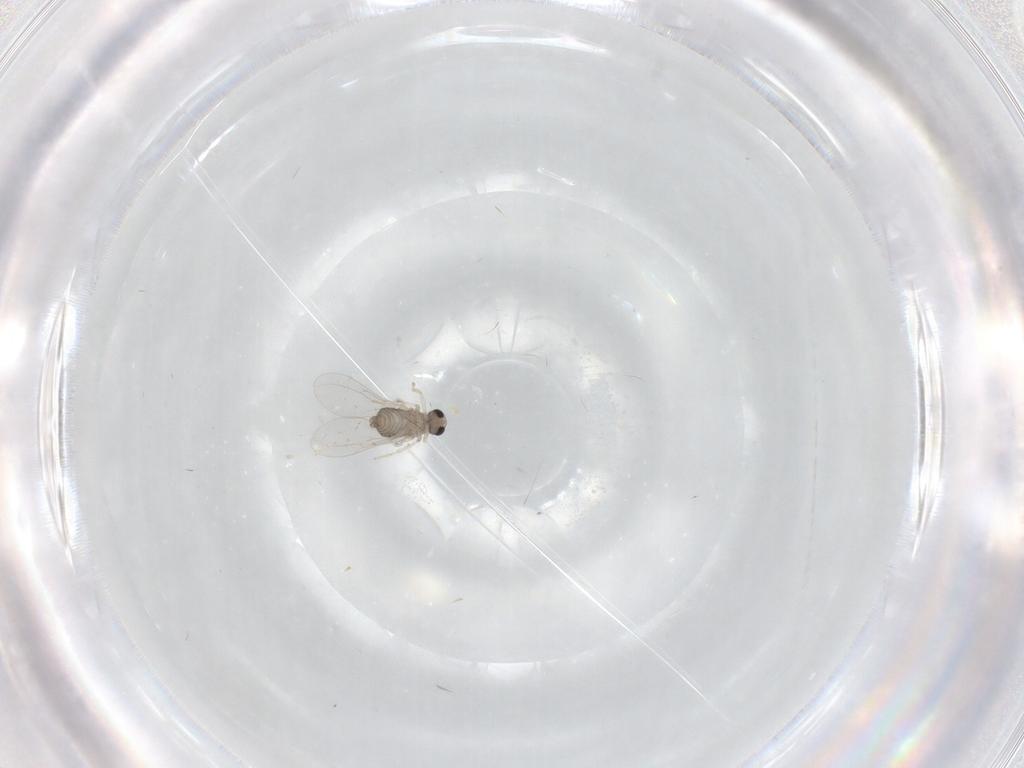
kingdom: Animalia
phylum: Arthropoda
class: Insecta
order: Diptera
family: Cecidomyiidae
